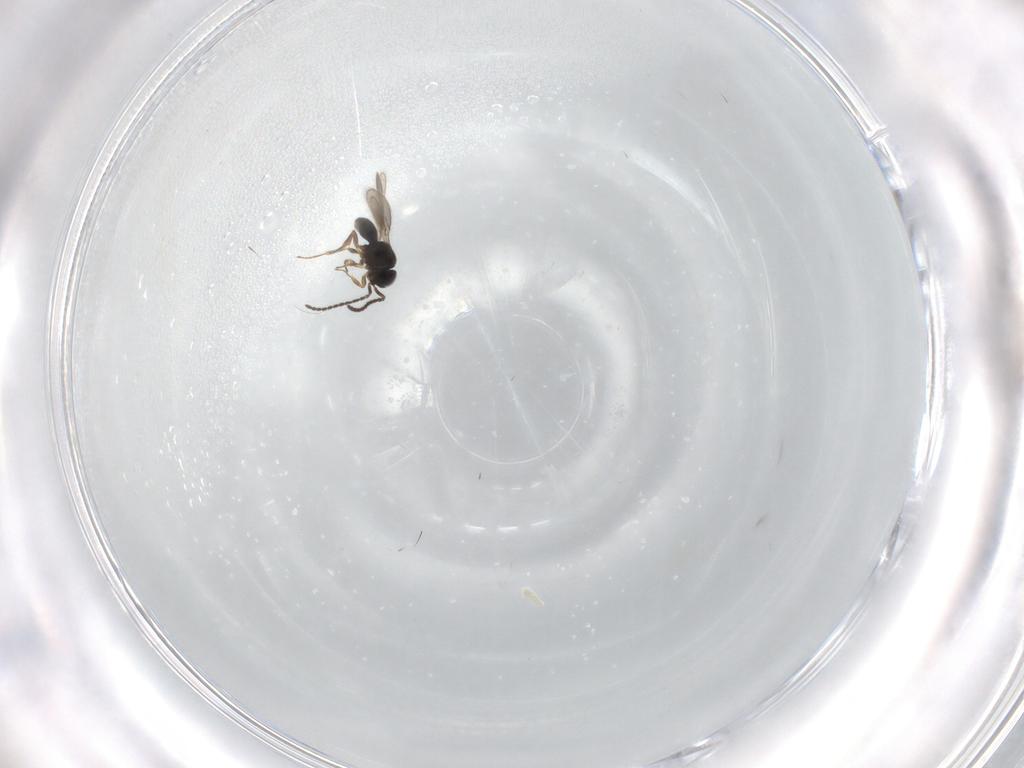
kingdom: Animalia
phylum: Arthropoda
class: Insecta
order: Hymenoptera
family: Scelionidae
